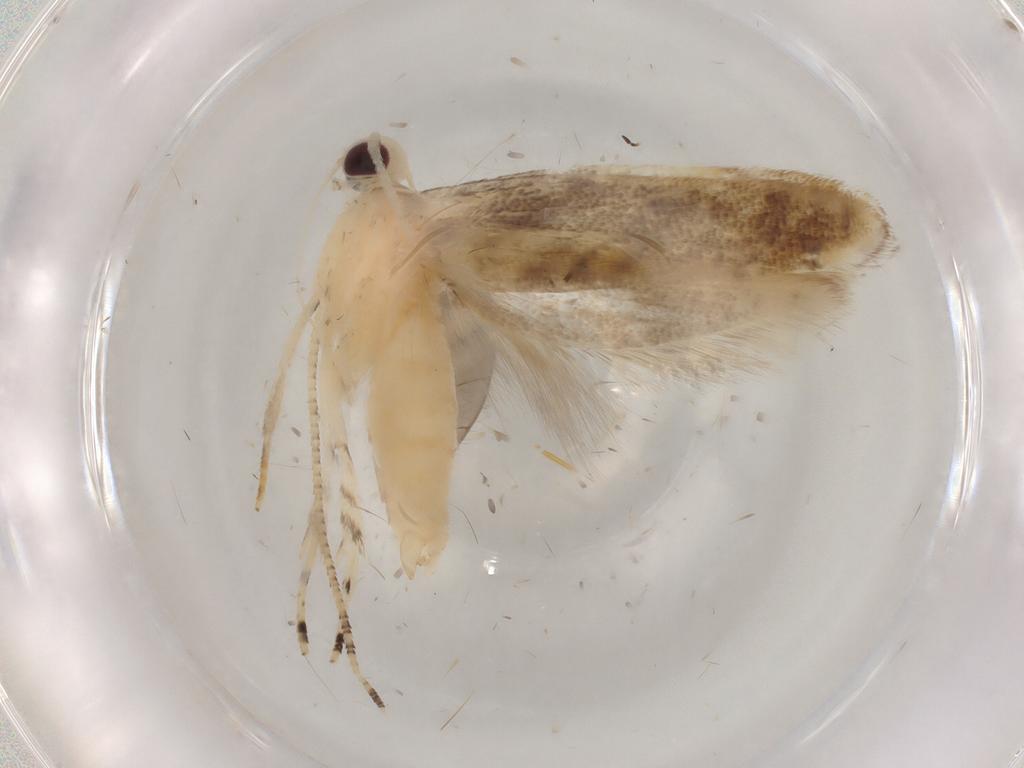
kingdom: Animalia
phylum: Arthropoda
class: Insecta
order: Lepidoptera
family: Elachistidae
